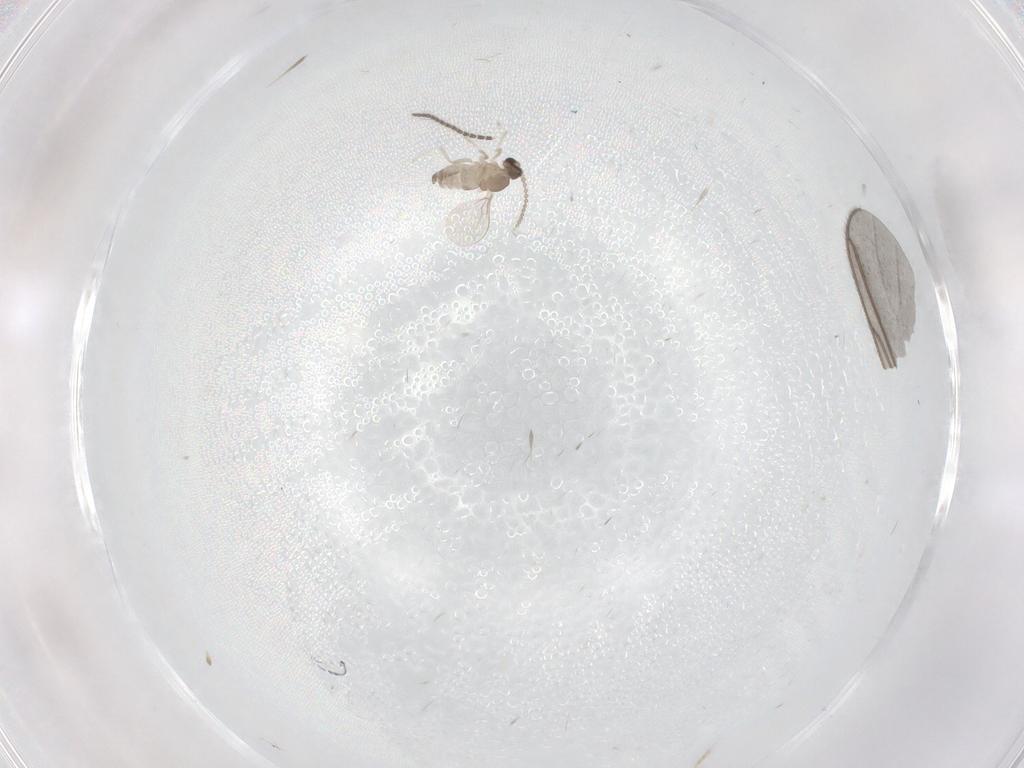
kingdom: Animalia
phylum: Arthropoda
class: Insecta
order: Diptera
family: Cecidomyiidae
